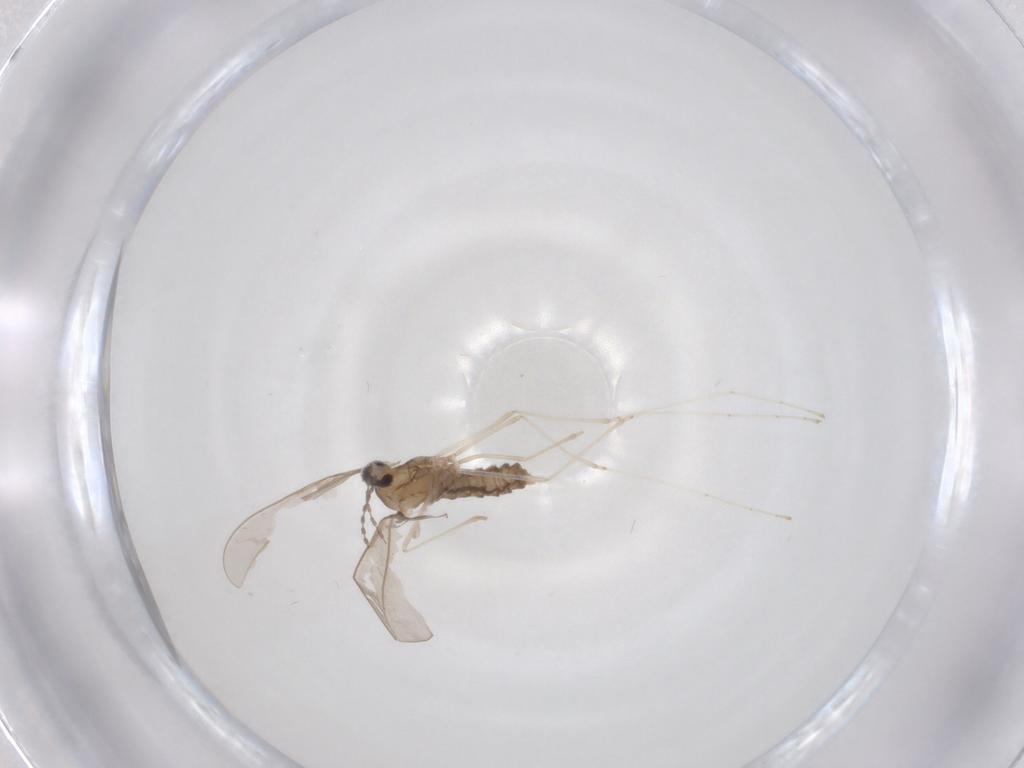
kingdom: Animalia
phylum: Arthropoda
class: Insecta
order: Diptera
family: Cecidomyiidae
